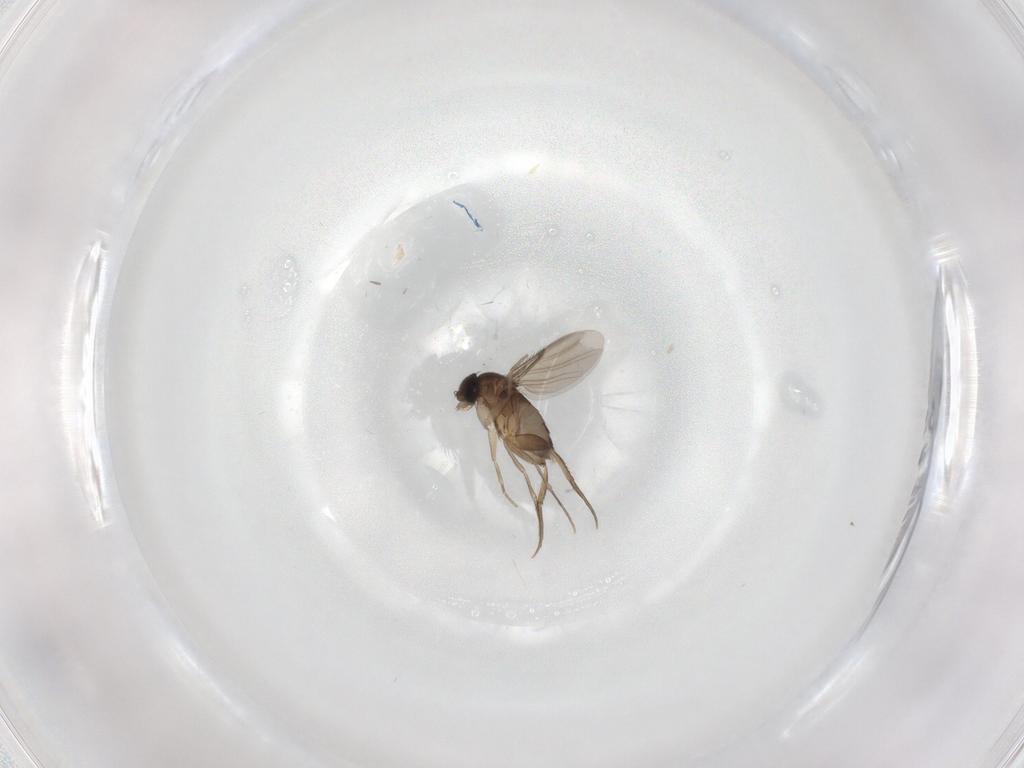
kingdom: Animalia
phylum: Arthropoda
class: Insecta
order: Diptera
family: Phoridae
